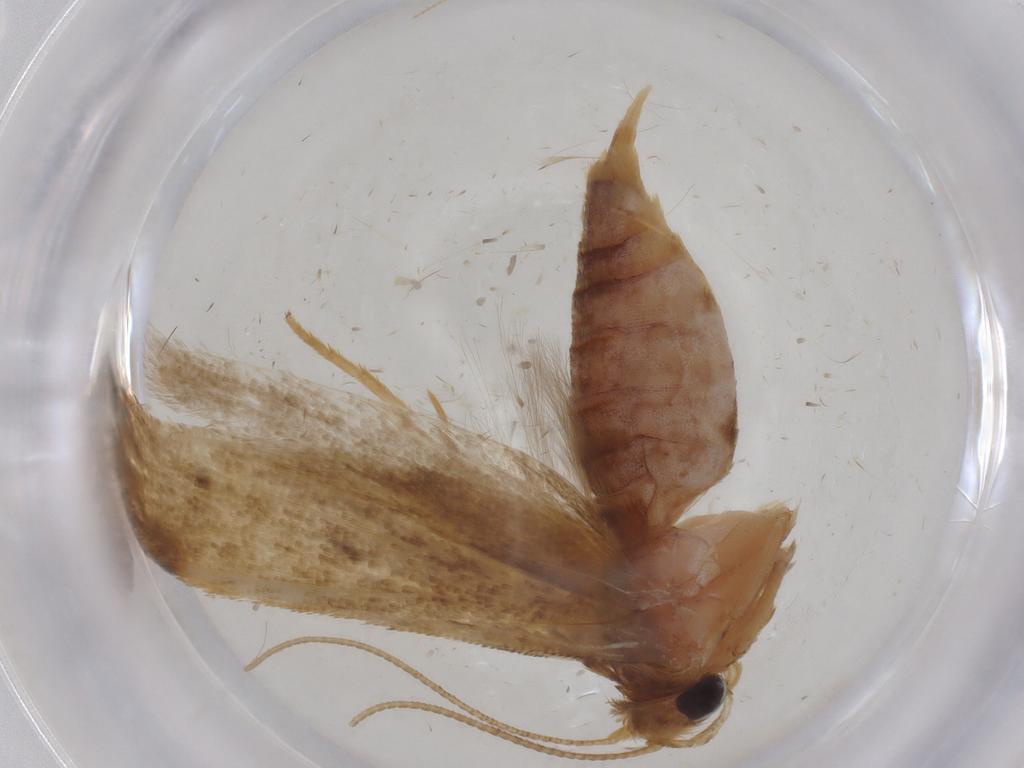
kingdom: Animalia
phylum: Arthropoda
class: Insecta
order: Lepidoptera
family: Blastobasidae
